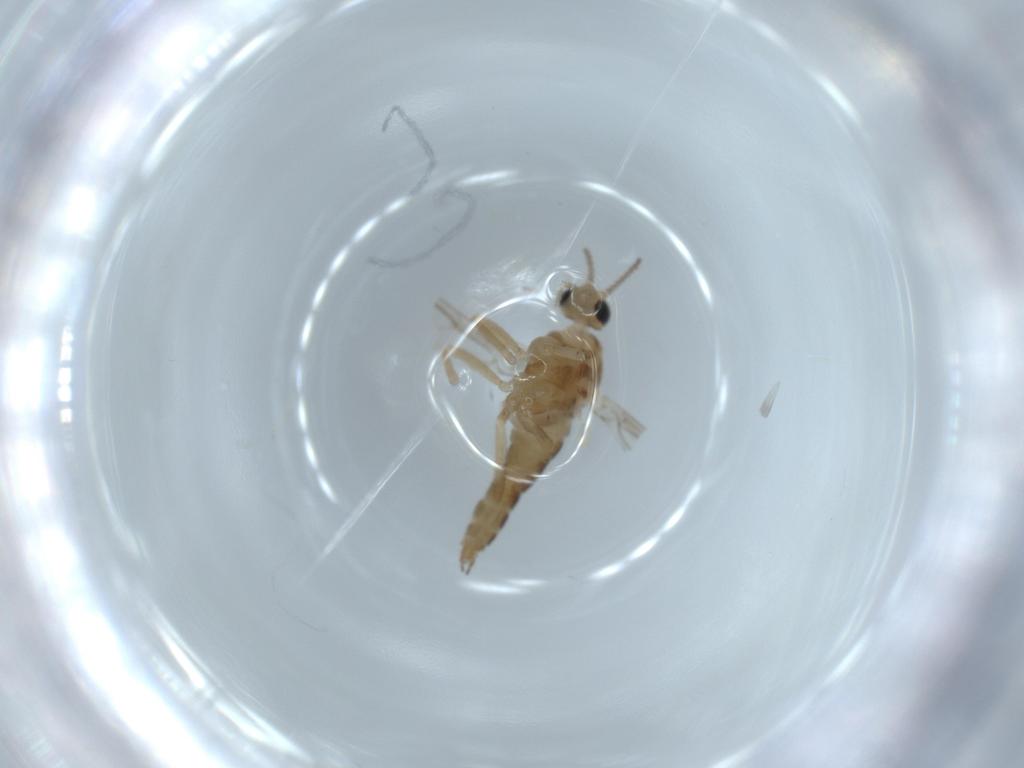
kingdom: Animalia
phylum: Arthropoda
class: Insecta
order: Diptera
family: Cecidomyiidae
